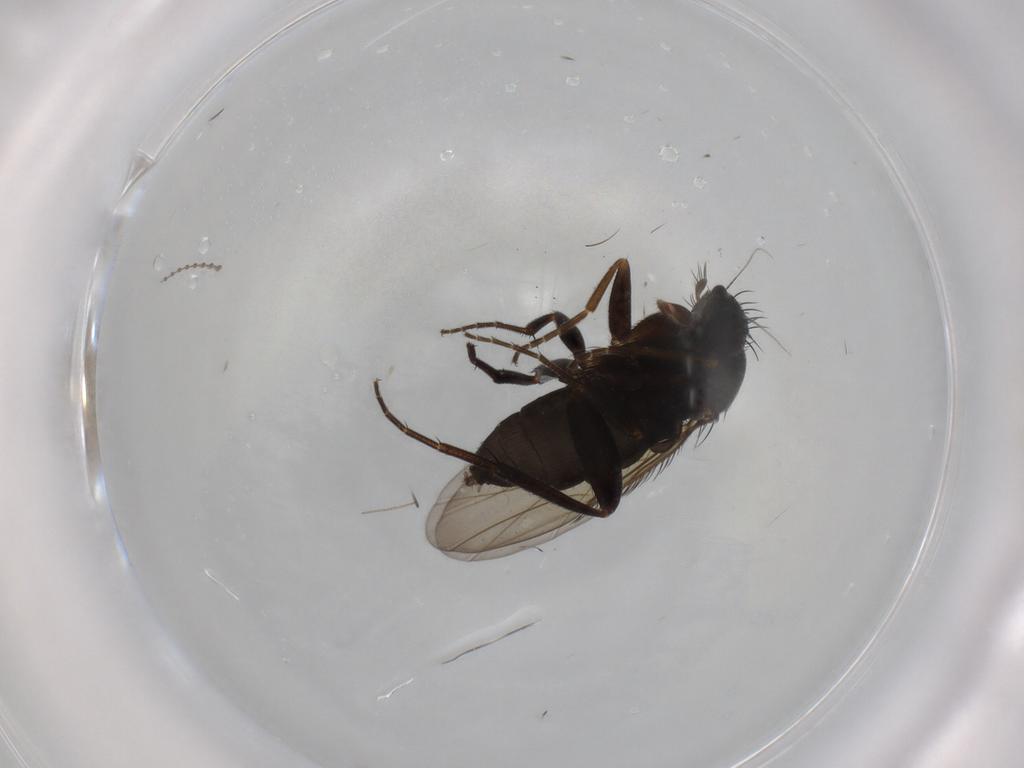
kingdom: Animalia
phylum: Arthropoda
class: Insecta
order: Diptera
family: Phoridae
